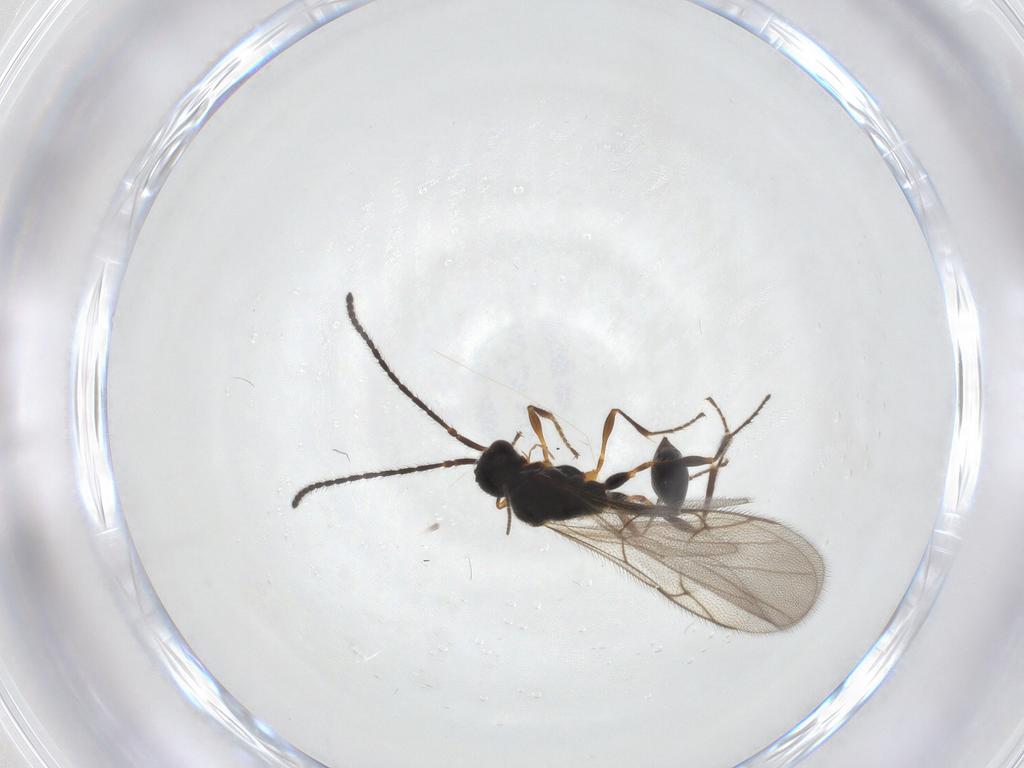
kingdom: Animalia
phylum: Arthropoda
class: Insecta
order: Hymenoptera
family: Diapriidae
